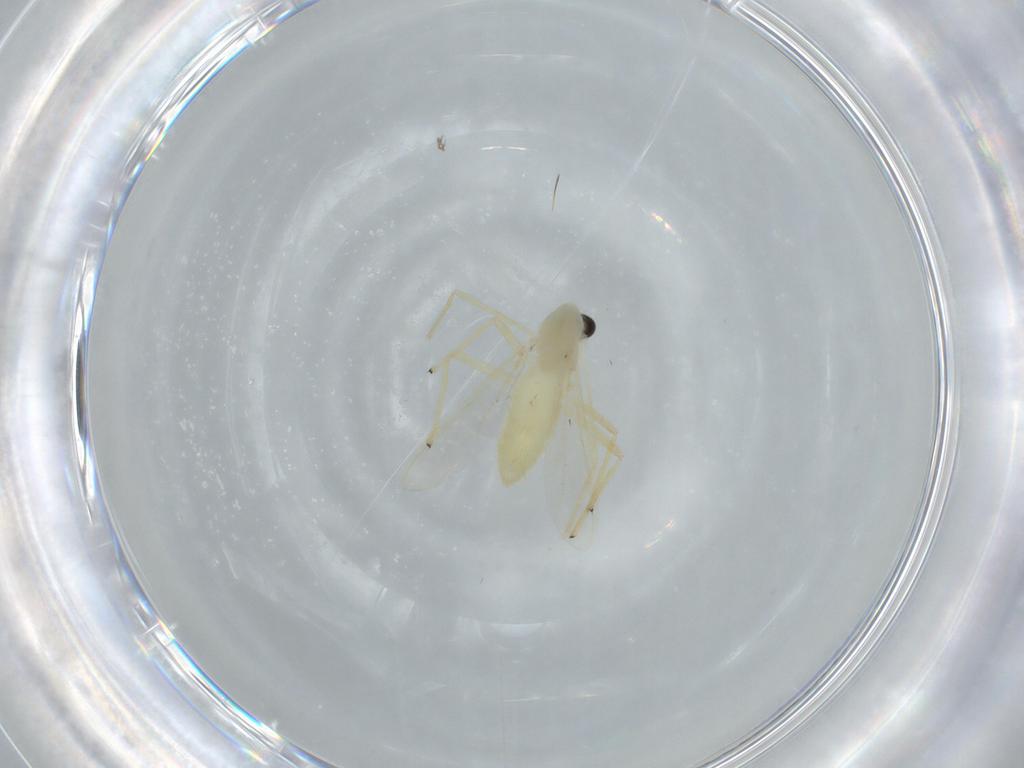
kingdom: Animalia
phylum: Arthropoda
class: Insecta
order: Diptera
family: Chironomidae
